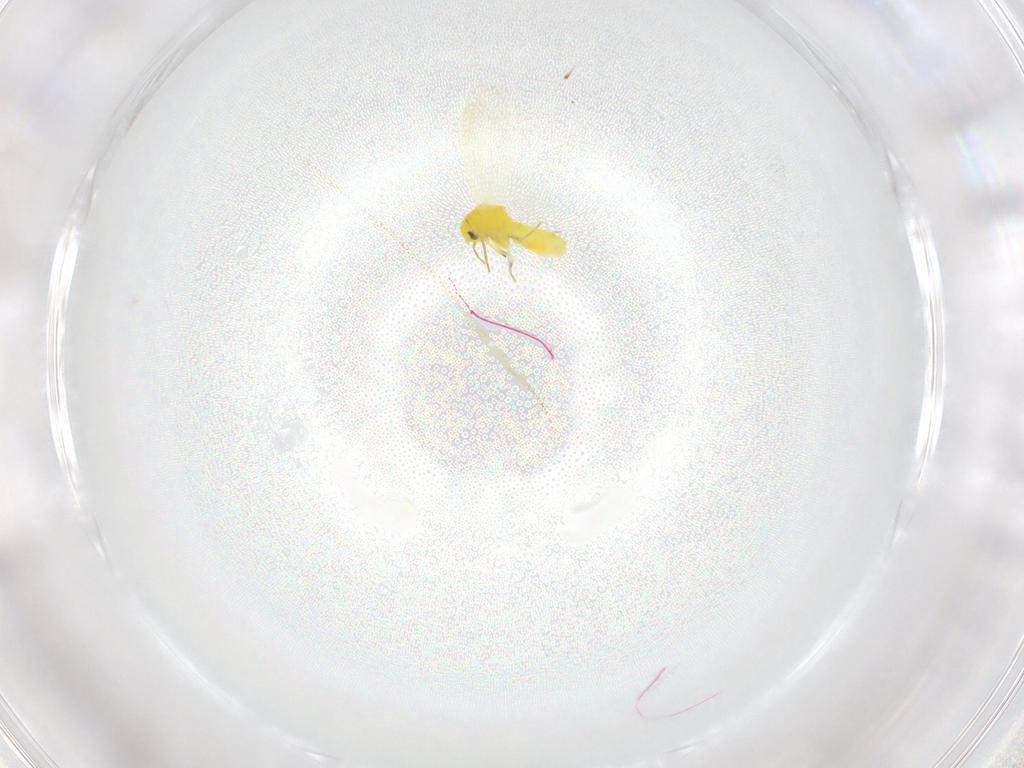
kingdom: Animalia
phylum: Arthropoda
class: Insecta
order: Hemiptera
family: Aleyrodidae
